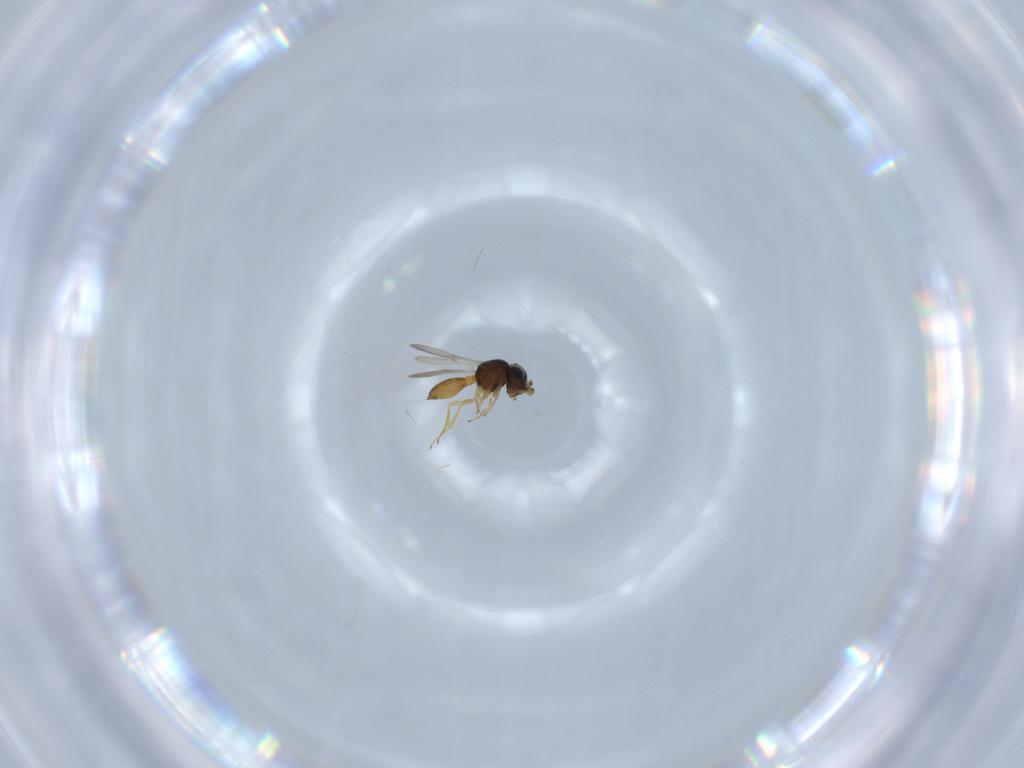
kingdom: Animalia
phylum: Arthropoda
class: Insecta
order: Hymenoptera
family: Scelionidae
